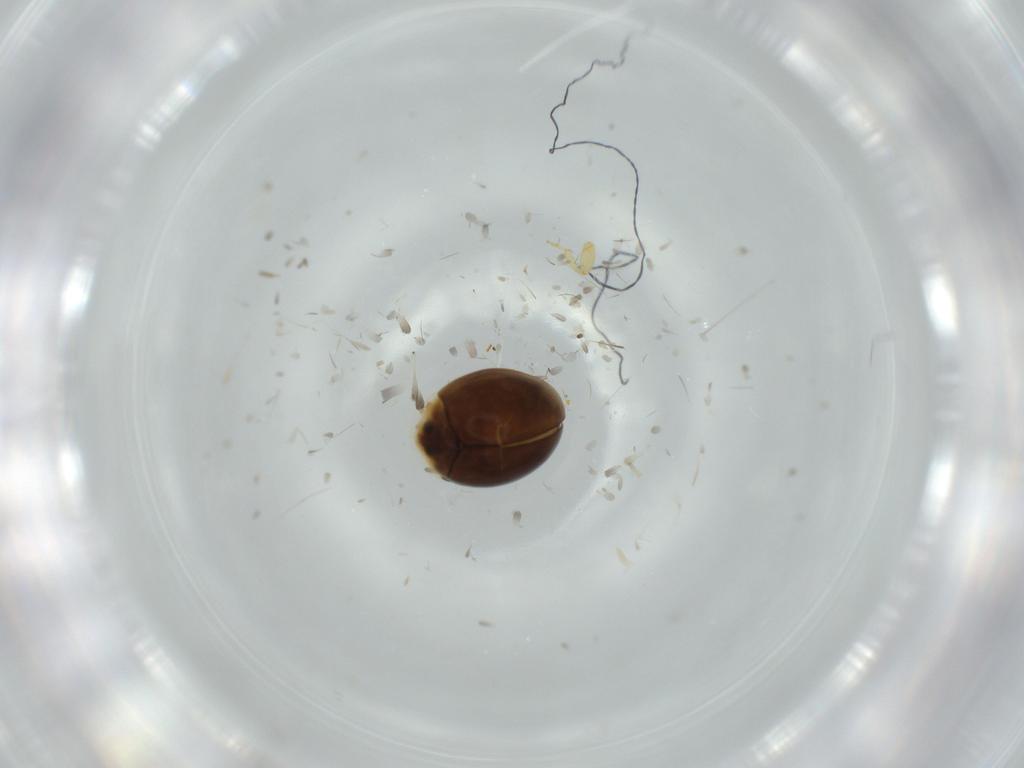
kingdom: Animalia
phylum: Arthropoda
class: Insecta
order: Coleoptera
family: Corylophidae
